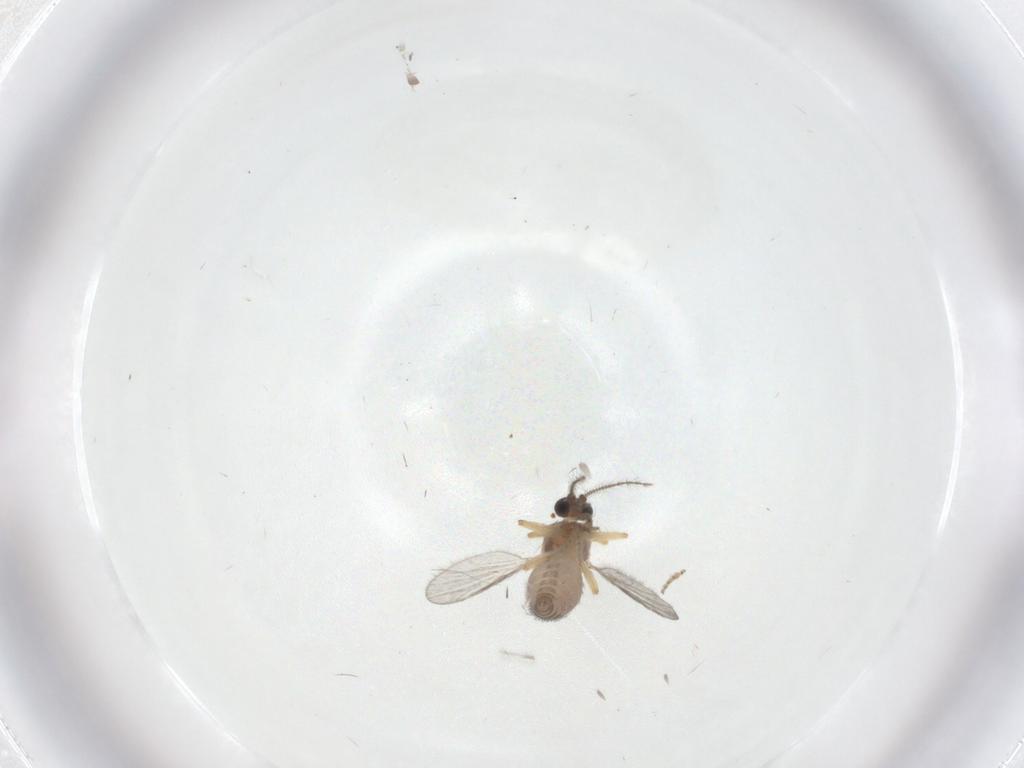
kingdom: Animalia
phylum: Arthropoda
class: Insecta
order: Diptera
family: Ceratopogonidae
